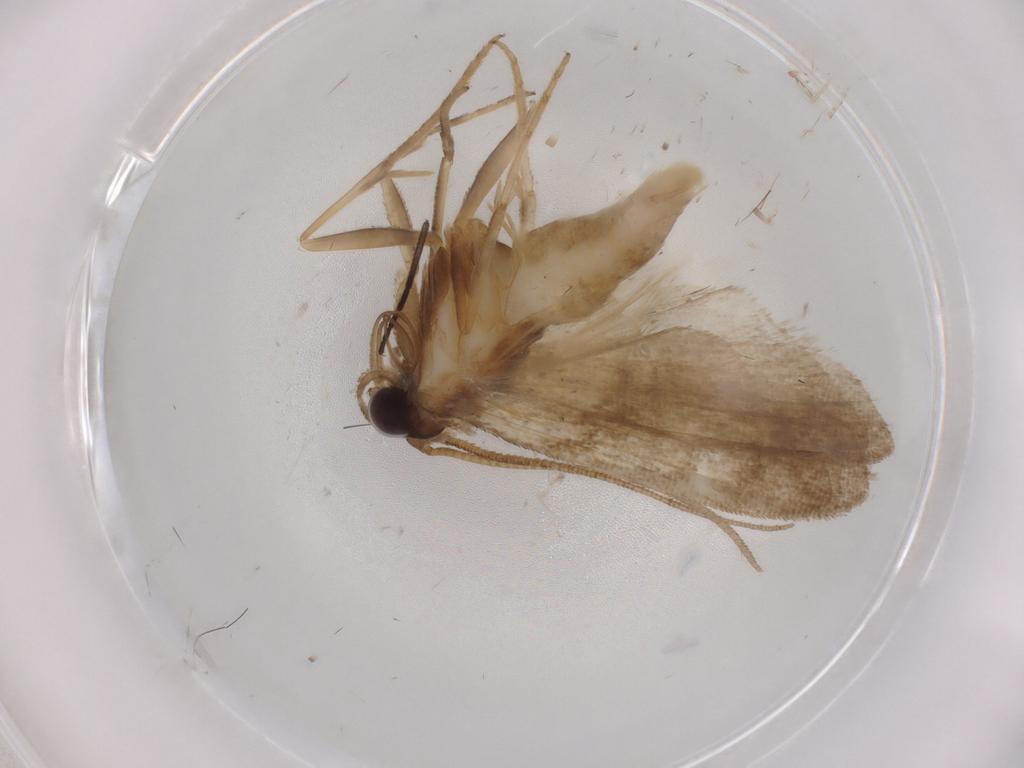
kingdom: Animalia
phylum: Arthropoda
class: Insecta
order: Lepidoptera
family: Noctuidae
